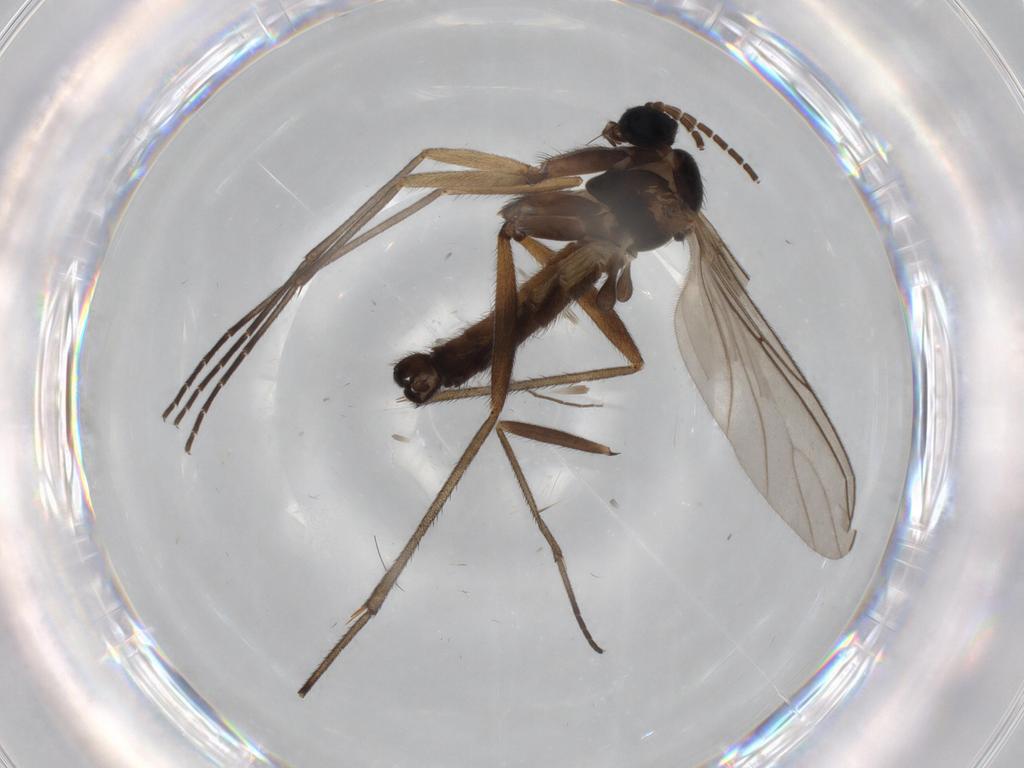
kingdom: Animalia
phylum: Arthropoda
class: Insecta
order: Diptera
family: Sciaridae
